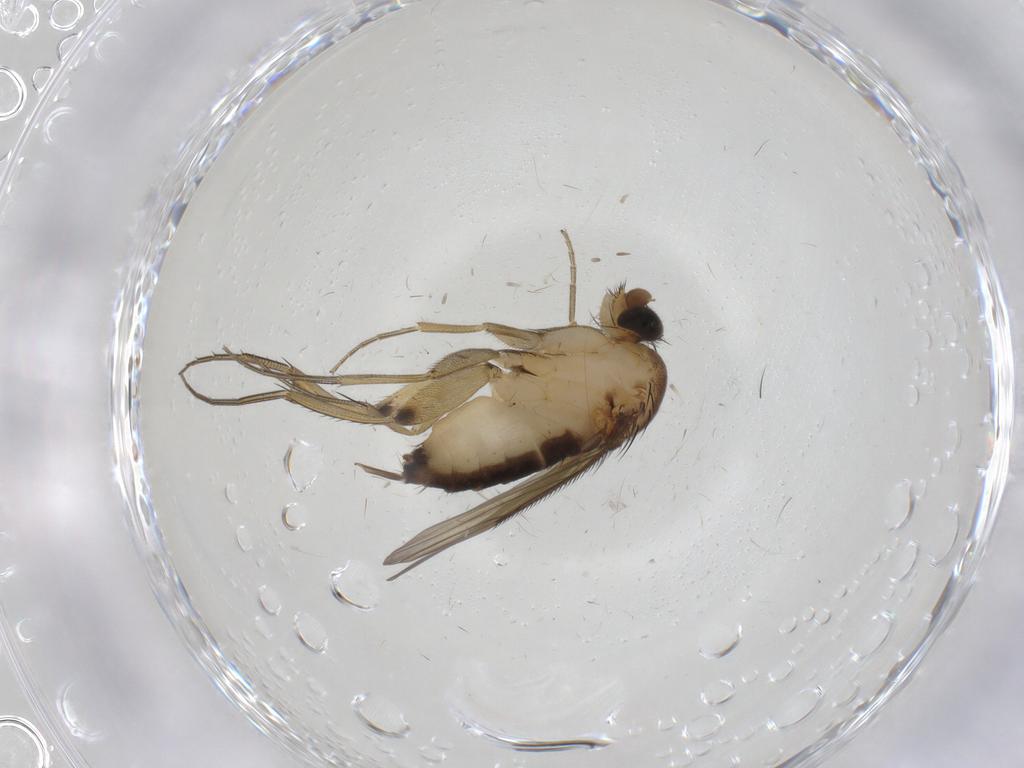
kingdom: Animalia
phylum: Arthropoda
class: Insecta
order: Diptera
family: Phoridae
